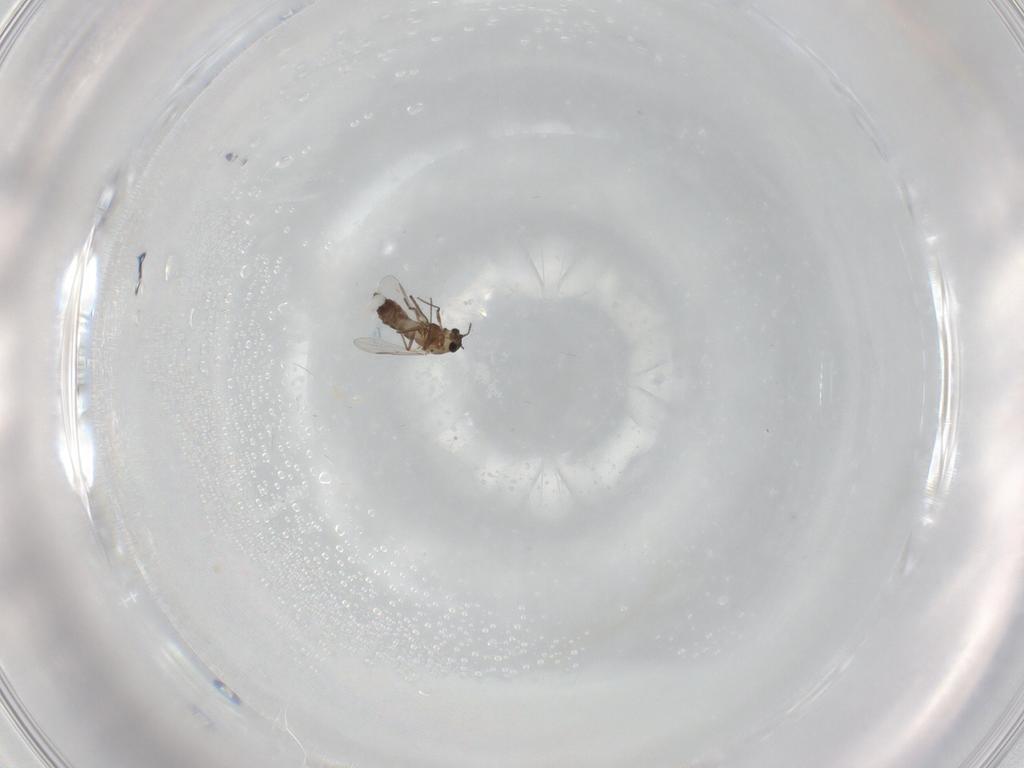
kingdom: Animalia
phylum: Arthropoda
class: Insecta
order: Diptera
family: Chironomidae
